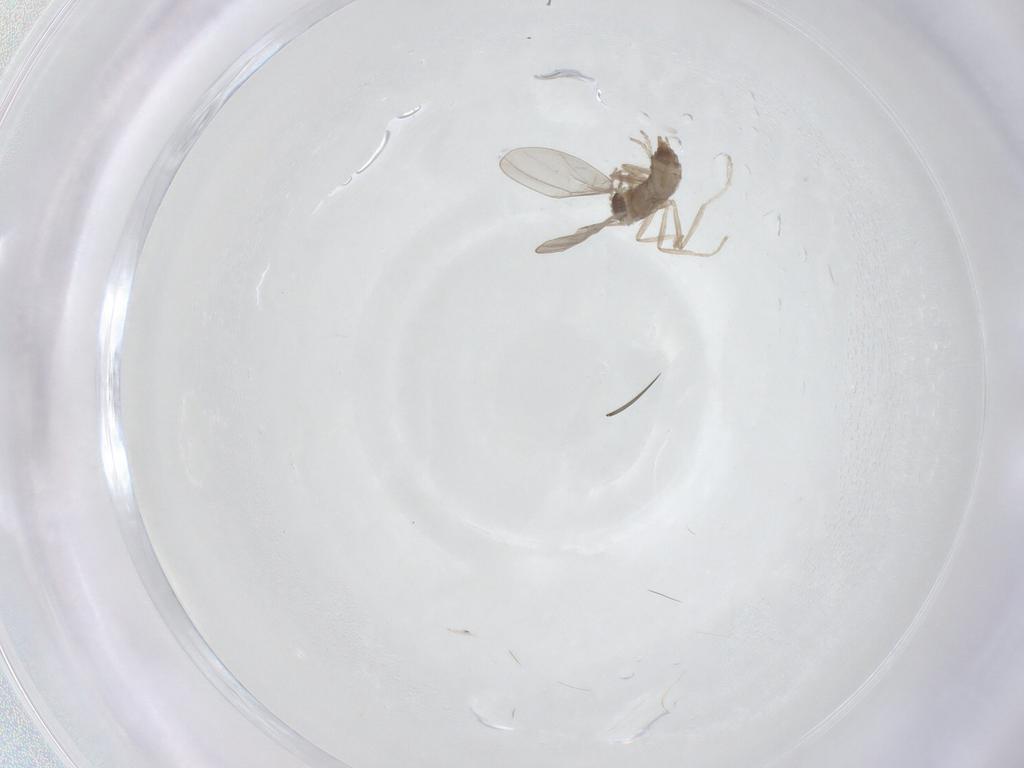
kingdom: Animalia
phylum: Arthropoda
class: Insecta
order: Diptera
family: Cecidomyiidae
